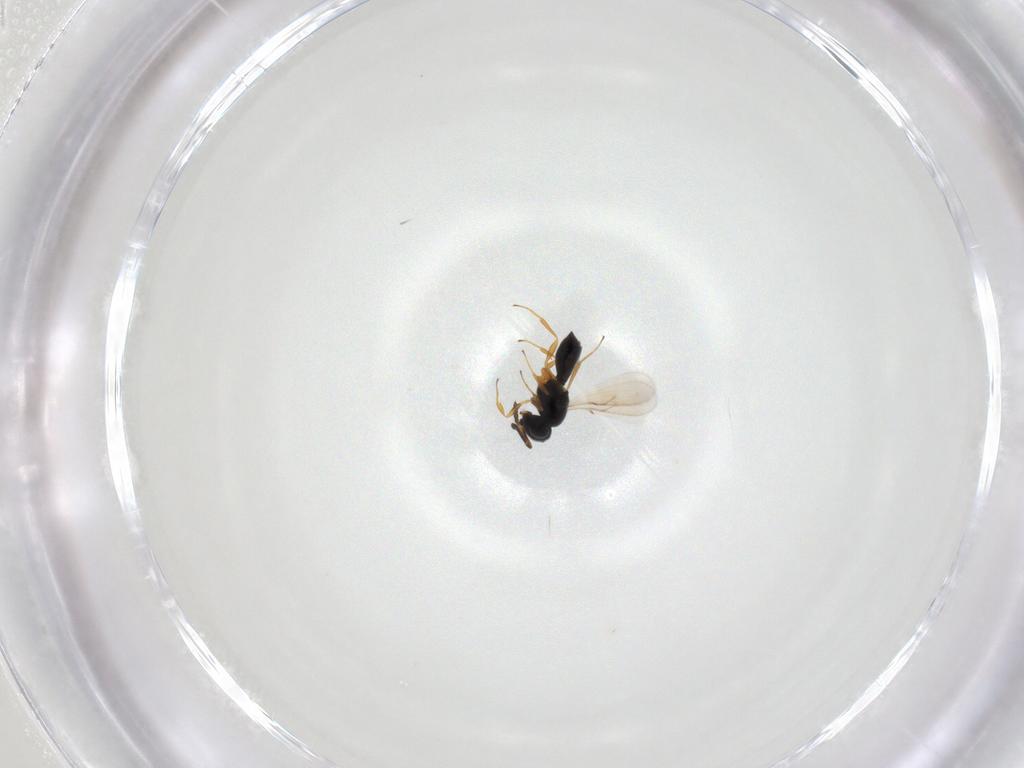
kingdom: Animalia
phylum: Arthropoda
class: Insecta
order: Hymenoptera
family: Scelionidae
